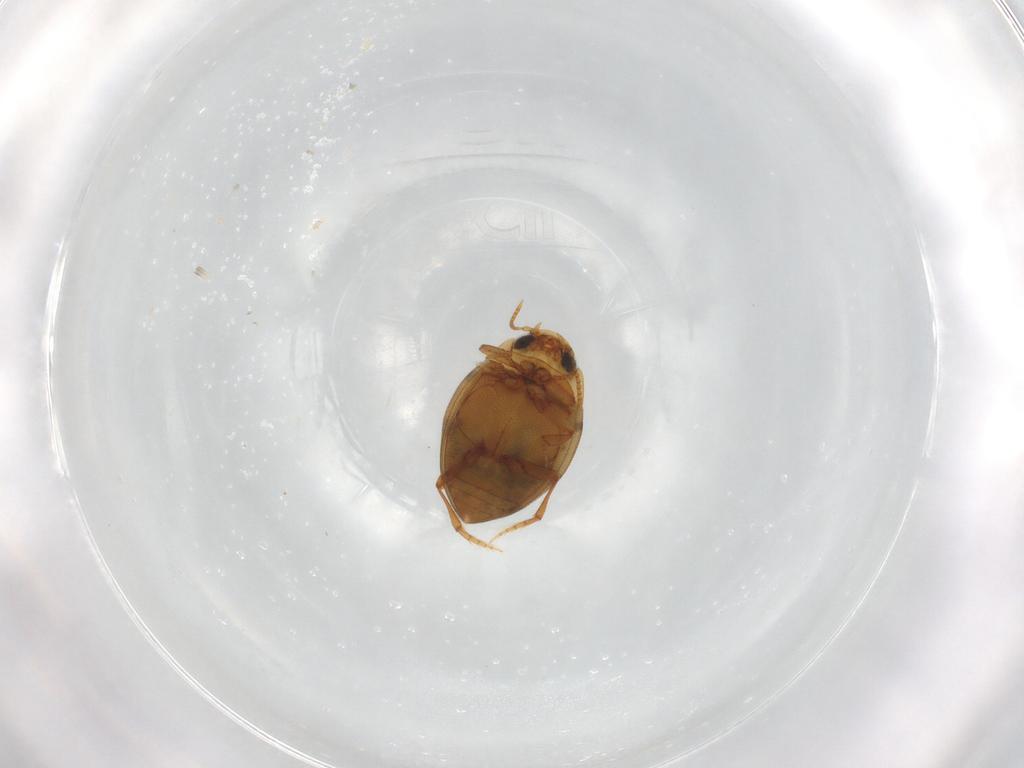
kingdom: Animalia
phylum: Arthropoda
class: Insecta
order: Coleoptera
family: Dytiscidae
